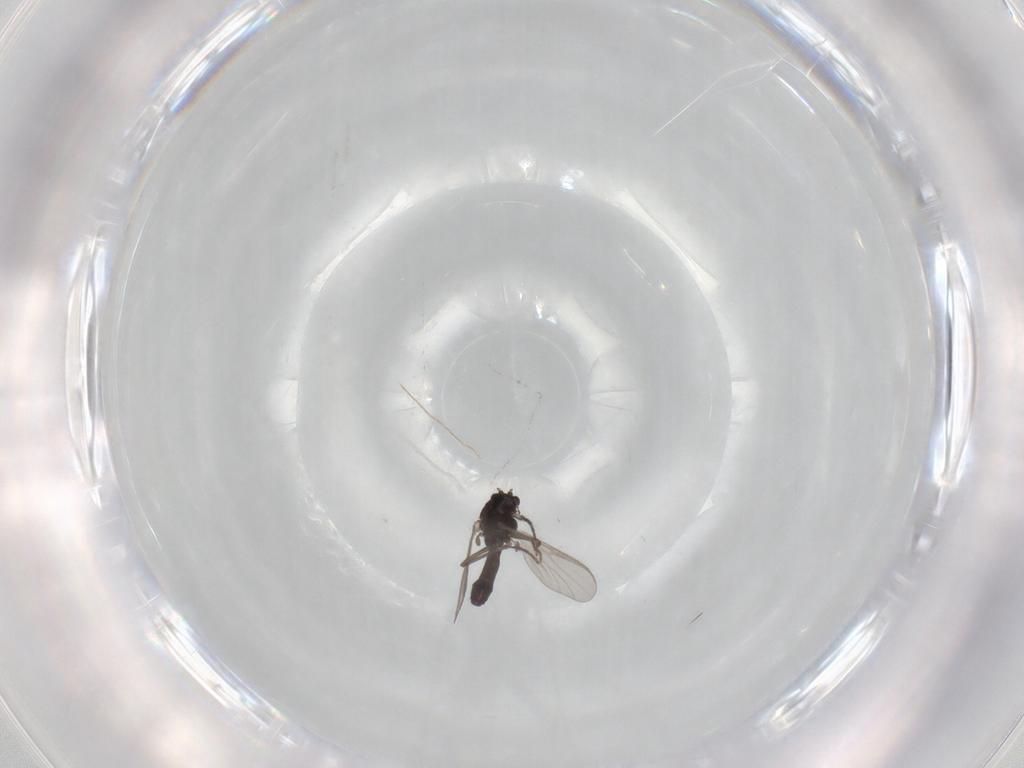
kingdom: Animalia
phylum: Arthropoda
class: Insecta
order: Diptera
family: Chironomidae
